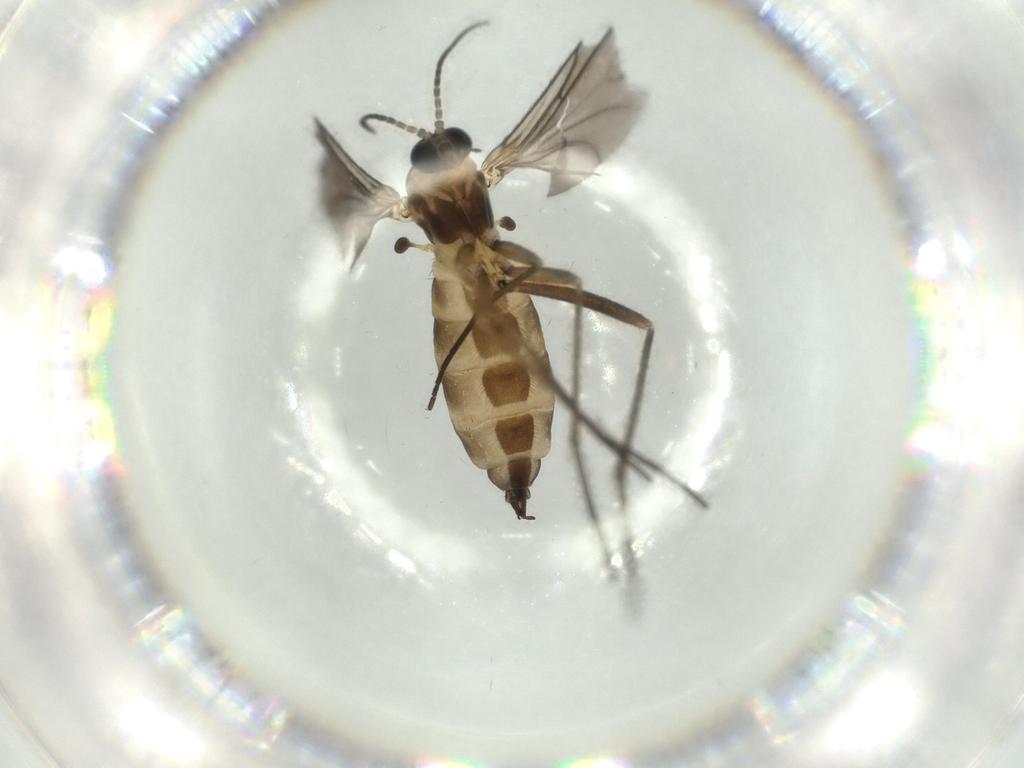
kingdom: Animalia
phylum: Arthropoda
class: Insecta
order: Diptera
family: Sciaridae
